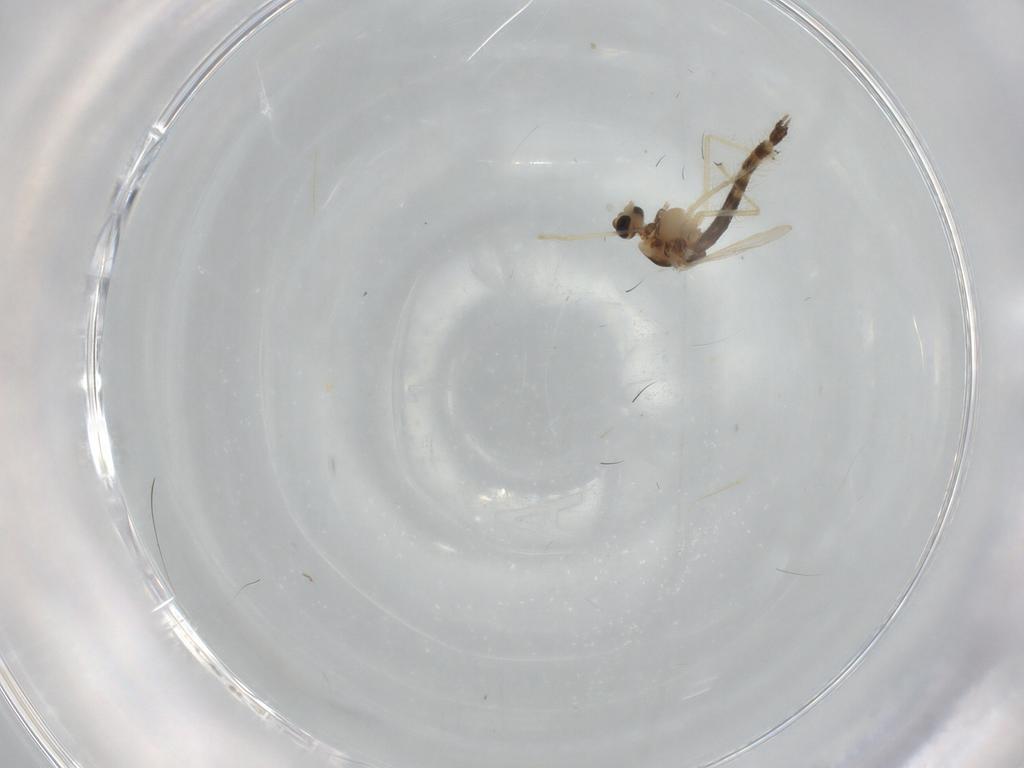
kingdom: Animalia
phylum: Arthropoda
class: Insecta
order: Diptera
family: Chironomidae
